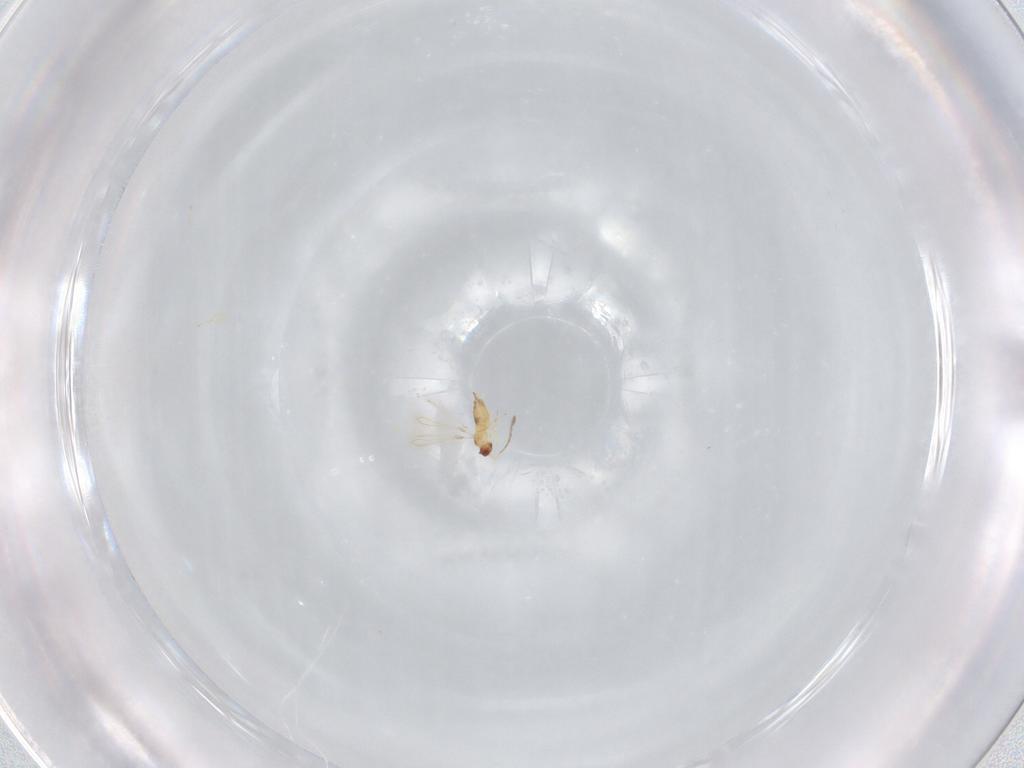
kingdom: Animalia
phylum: Arthropoda
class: Insecta
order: Hymenoptera
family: Mymaridae
